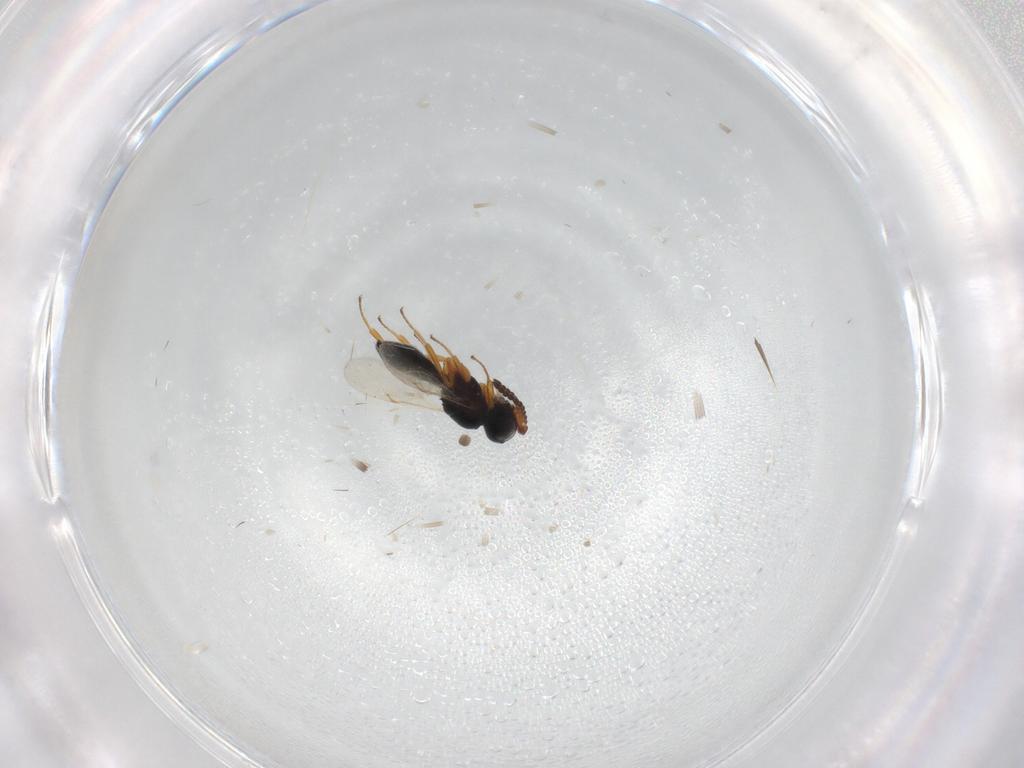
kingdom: Animalia
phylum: Arthropoda
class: Insecta
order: Hymenoptera
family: Scelionidae
